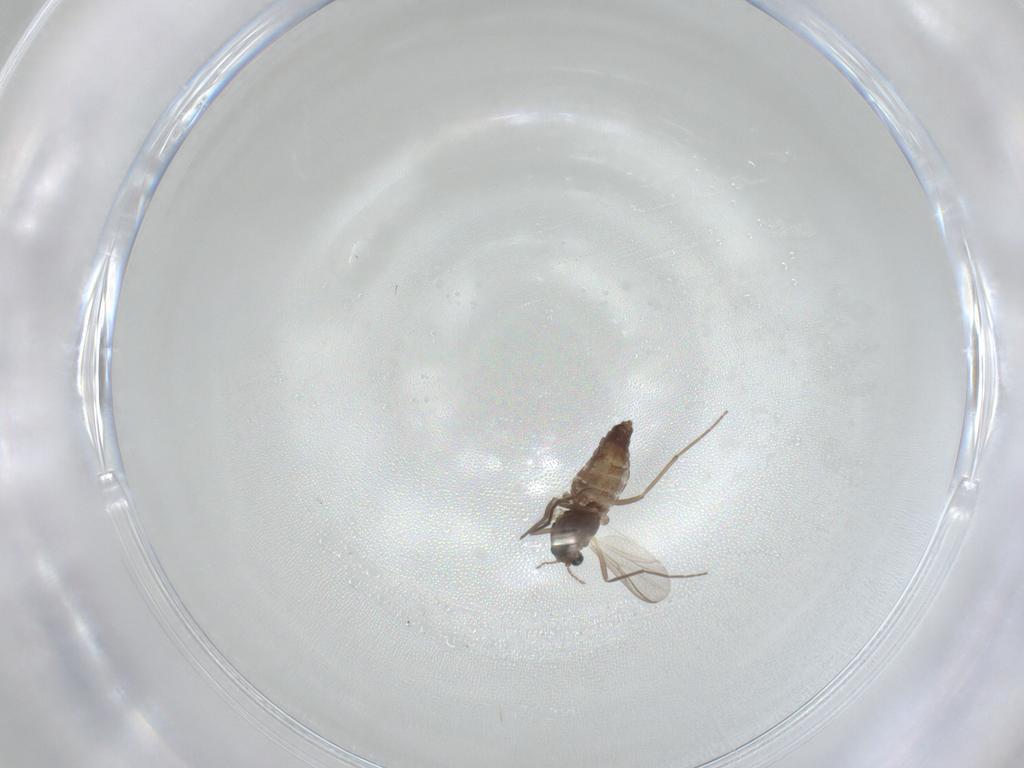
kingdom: Animalia
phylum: Arthropoda
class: Insecta
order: Diptera
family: Chironomidae
